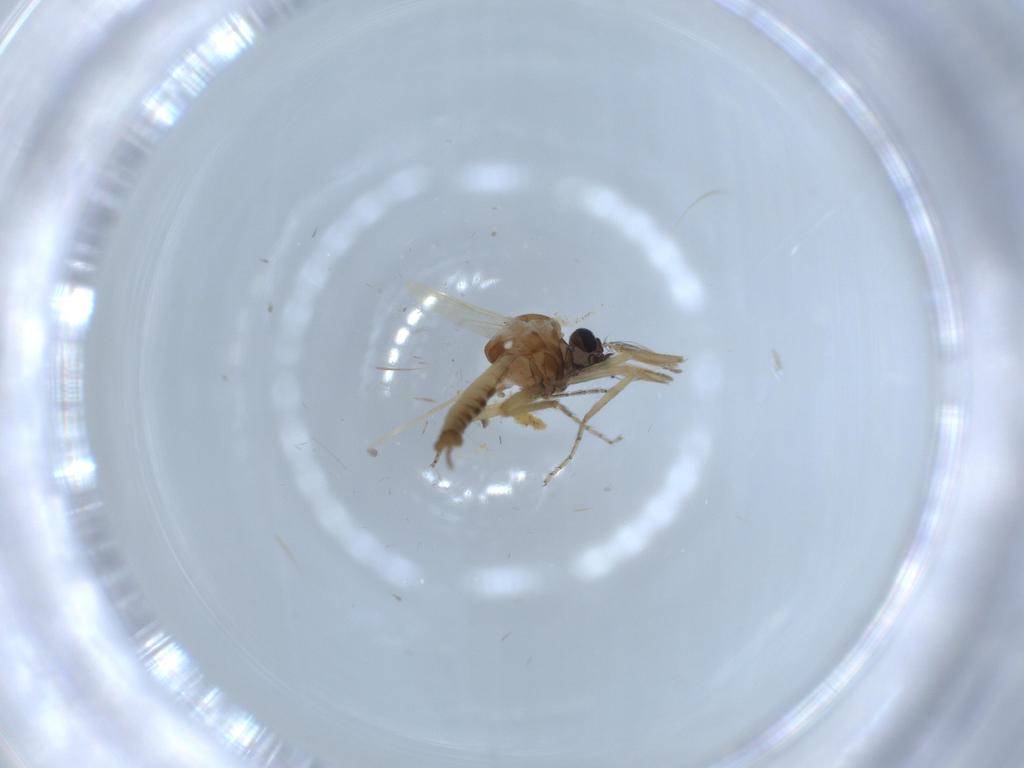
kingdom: Animalia
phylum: Arthropoda
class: Insecta
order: Diptera
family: Ceratopogonidae
